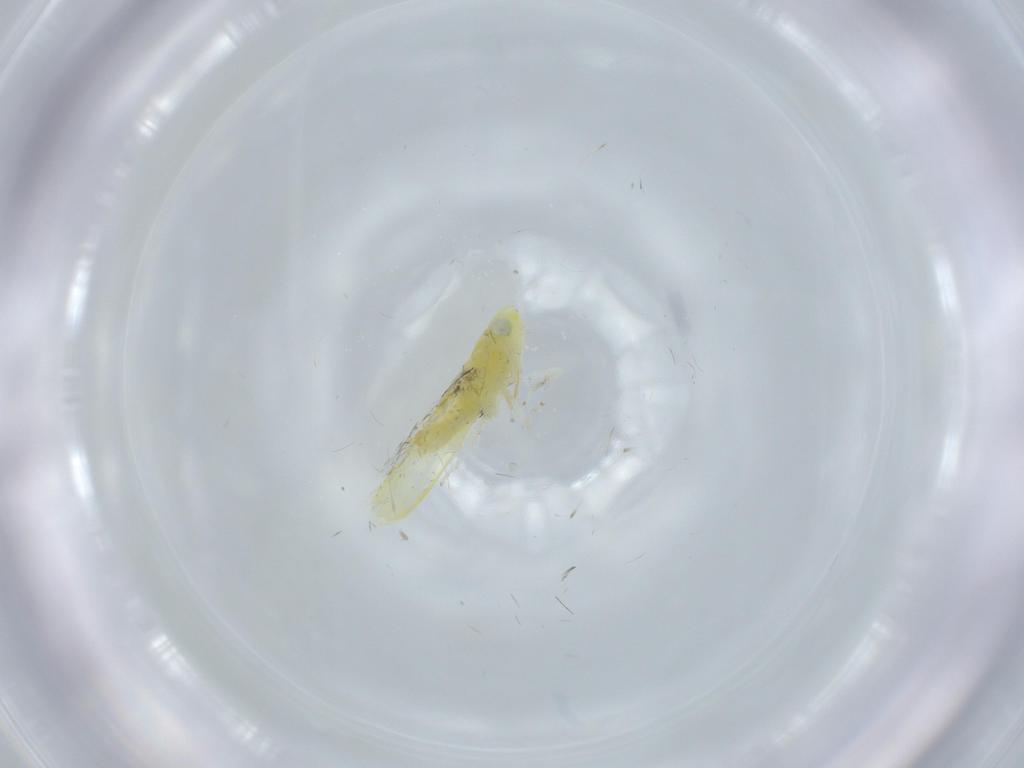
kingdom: Animalia
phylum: Arthropoda
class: Insecta
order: Hemiptera
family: Cicadellidae
